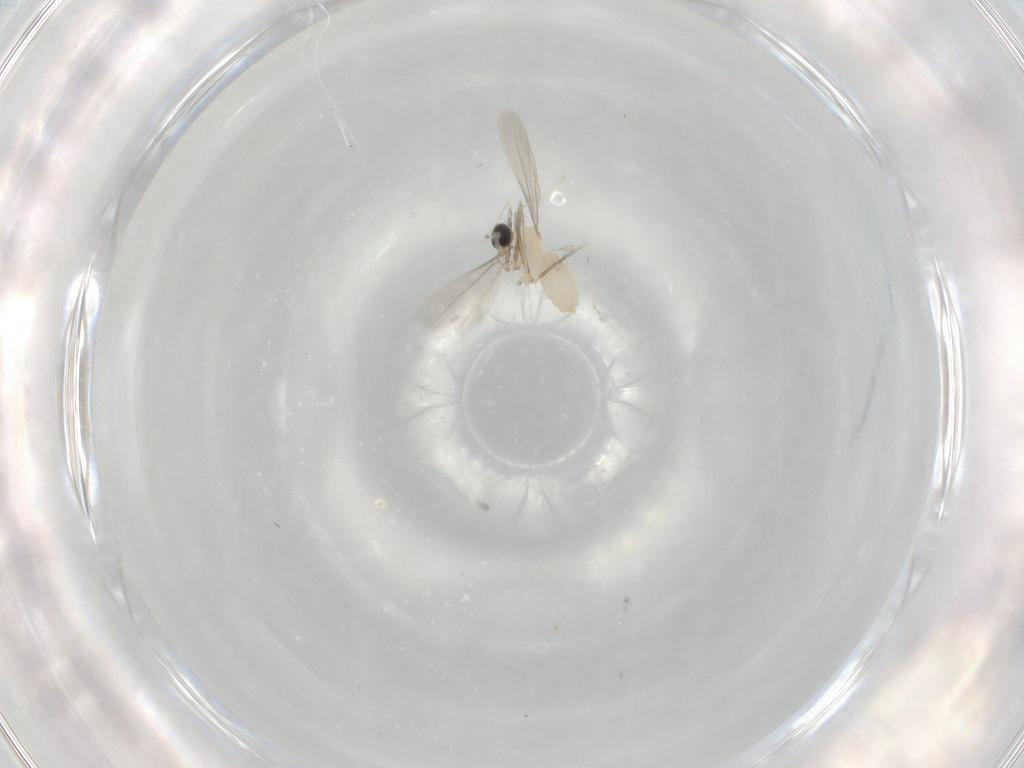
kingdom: Animalia
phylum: Arthropoda
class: Insecta
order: Diptera
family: Cecidomyiidae
